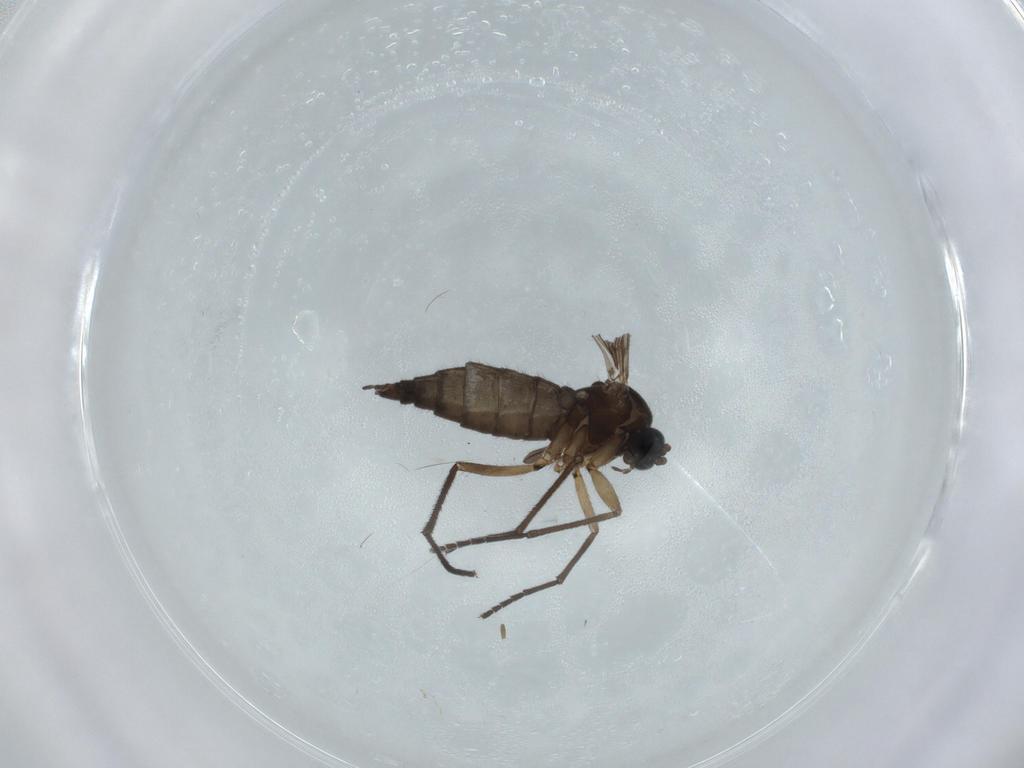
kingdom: Animalia
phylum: Arthropoda
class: Insecta
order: Diptera
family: Sciaridae
